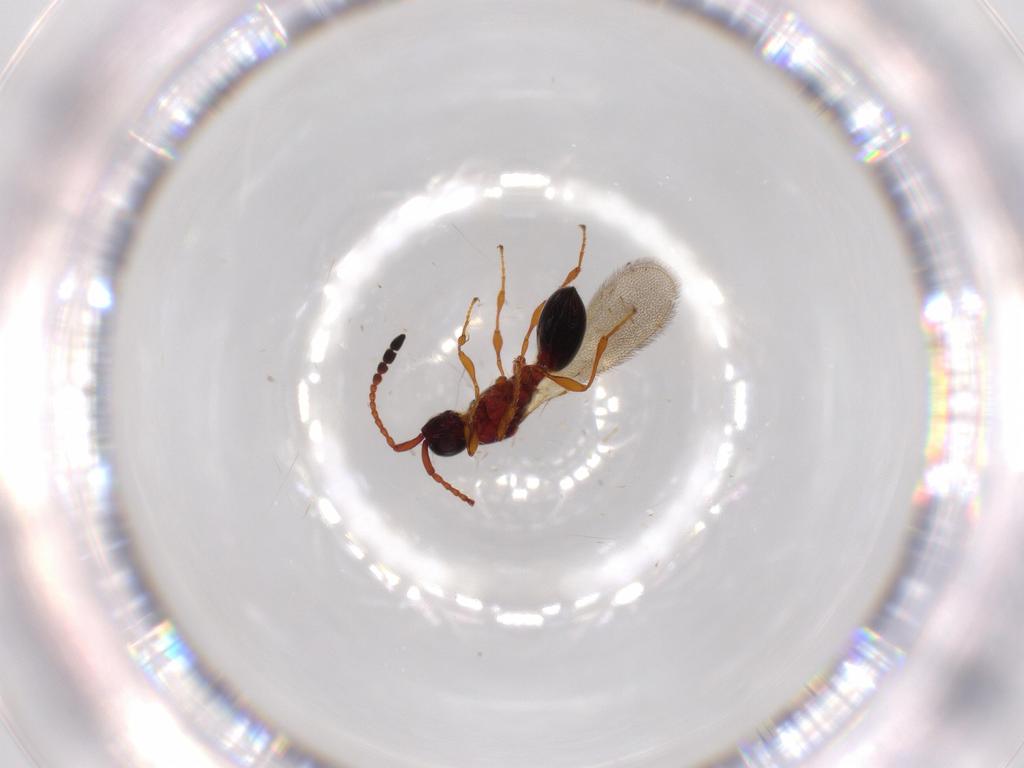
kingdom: Animalia
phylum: Arthropoda
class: Insecta
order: Hymenoptera
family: Diapriidae
